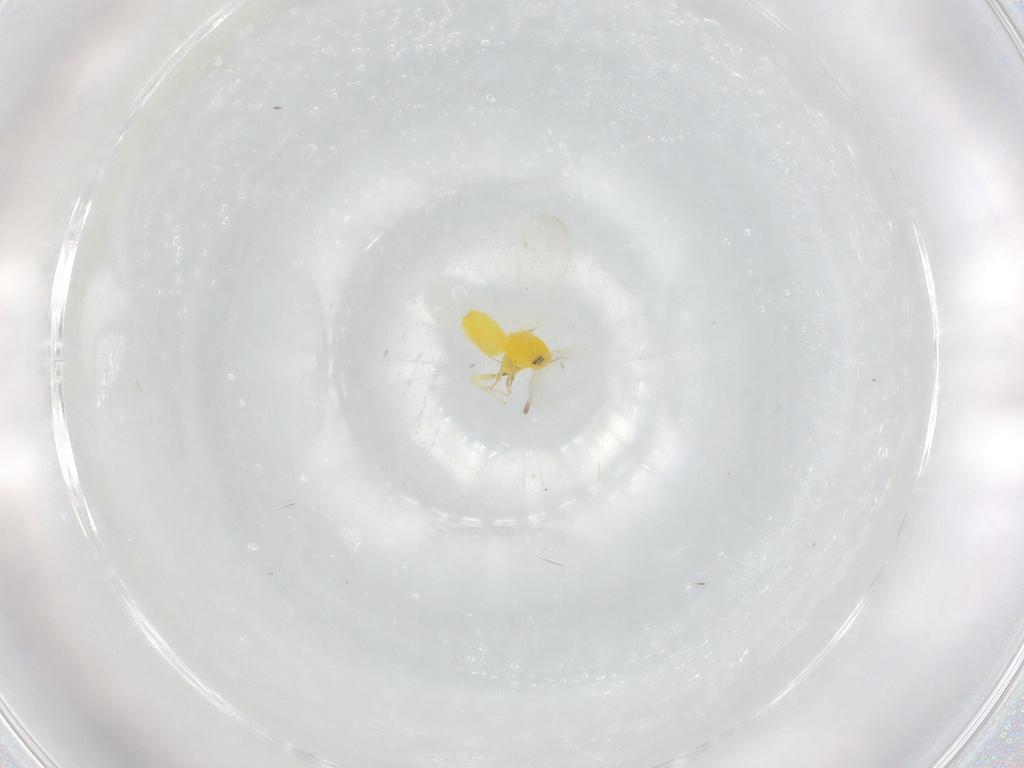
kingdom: Animalia
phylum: Arthropoda
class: Insecta
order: Hemiptera
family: Aleyrodidae
